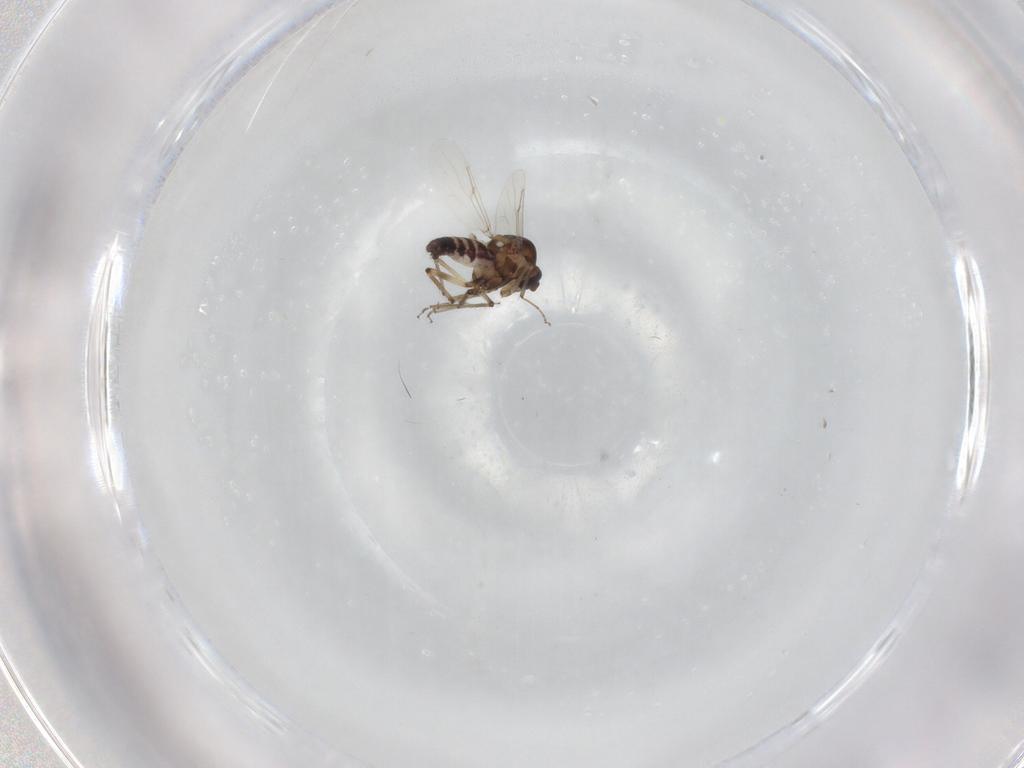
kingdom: Animalia
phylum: Arthropoda
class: Insecta
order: Diptera
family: Ceratopogonidae
